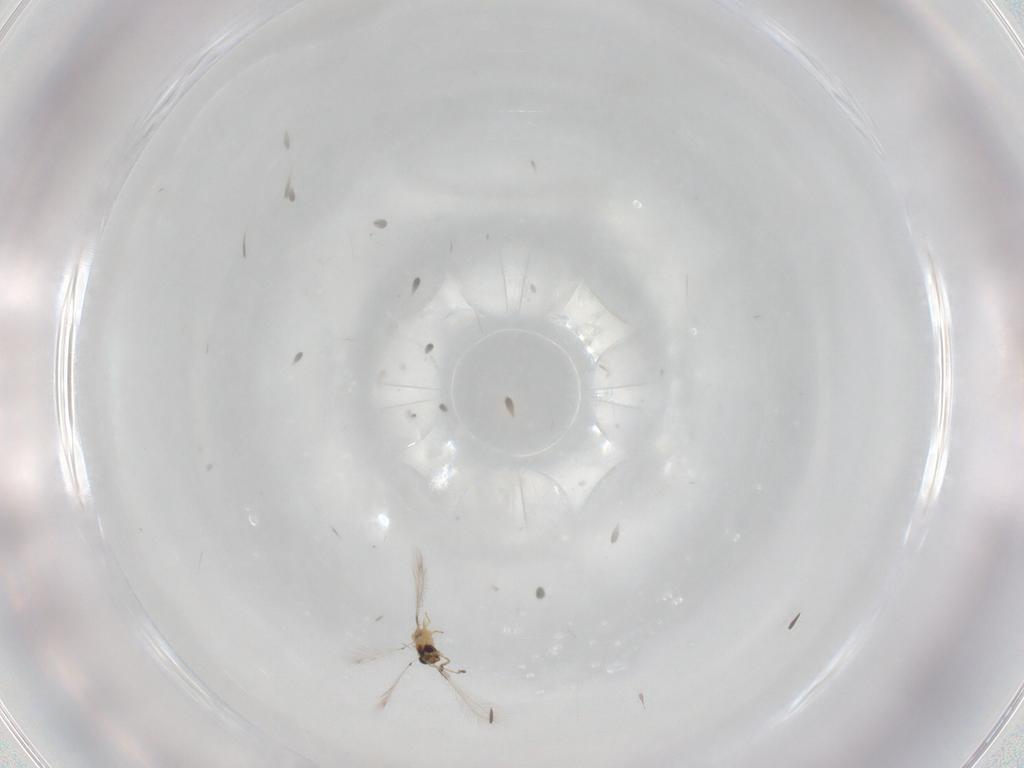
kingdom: Animalia
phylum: Arthropoda
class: Insecta
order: Hymenoptera
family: Mymaridae
